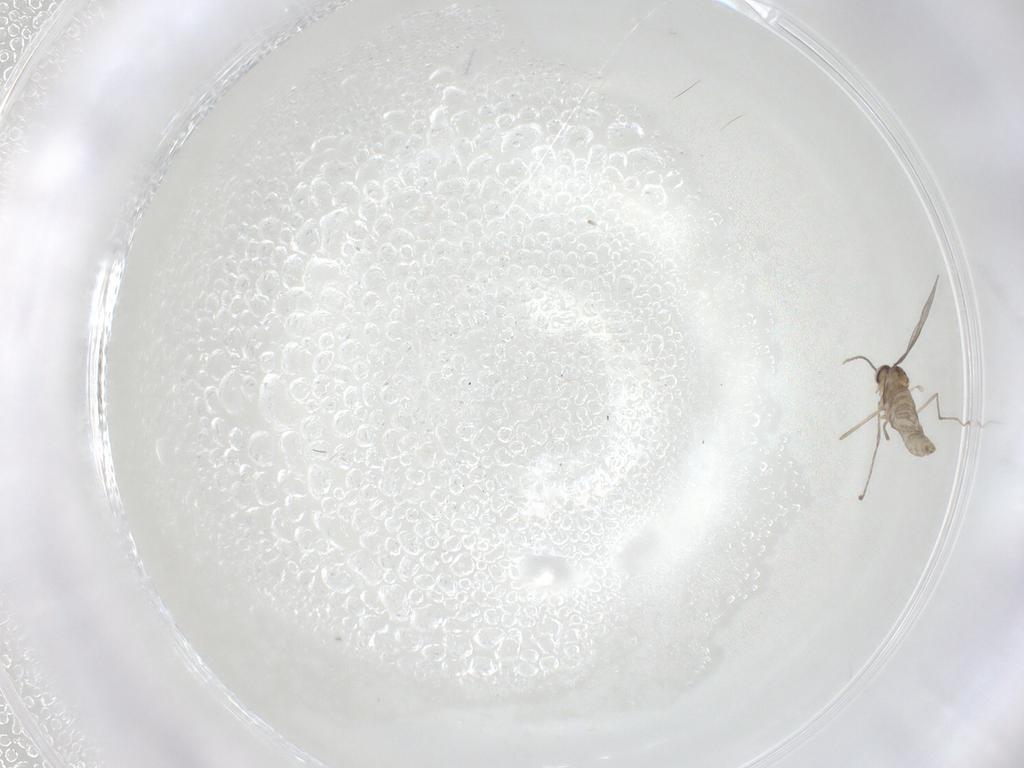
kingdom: Animalia
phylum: Arthropoda
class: Insecta
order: Diptera
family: Cecidomyiidae
